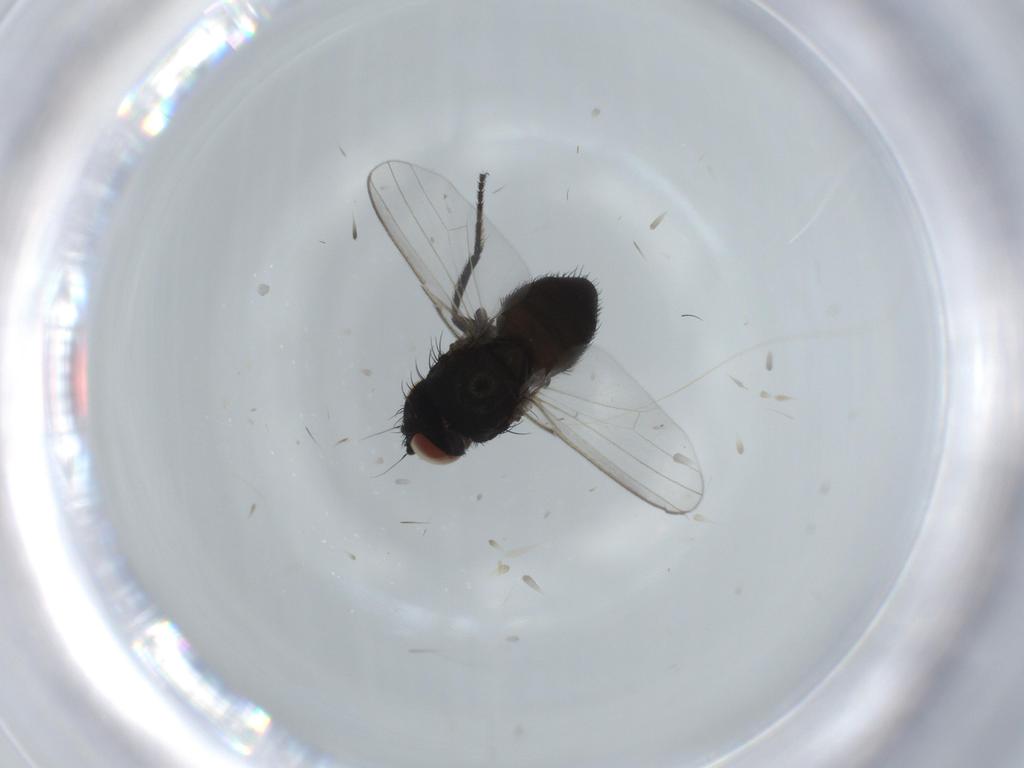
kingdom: Animalia
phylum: Arthropoda
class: Insecta
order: Diptera
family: Milichiidae
